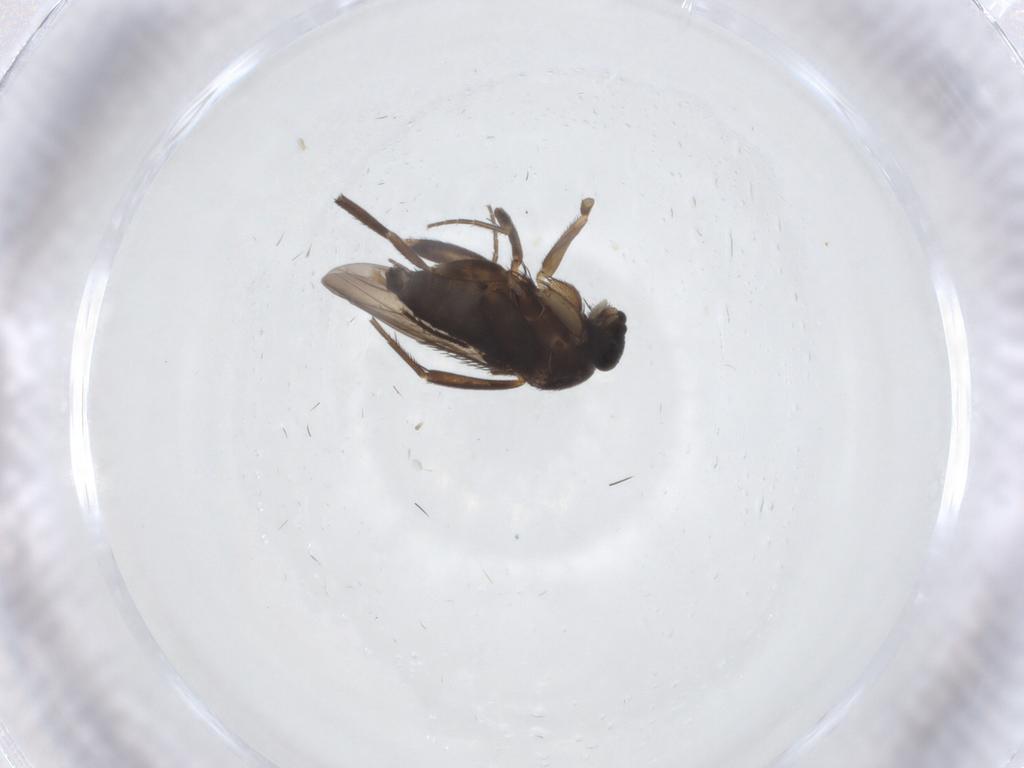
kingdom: Animalia
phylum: Arthropoda
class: Insecta
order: Diptera
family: Phoridae
